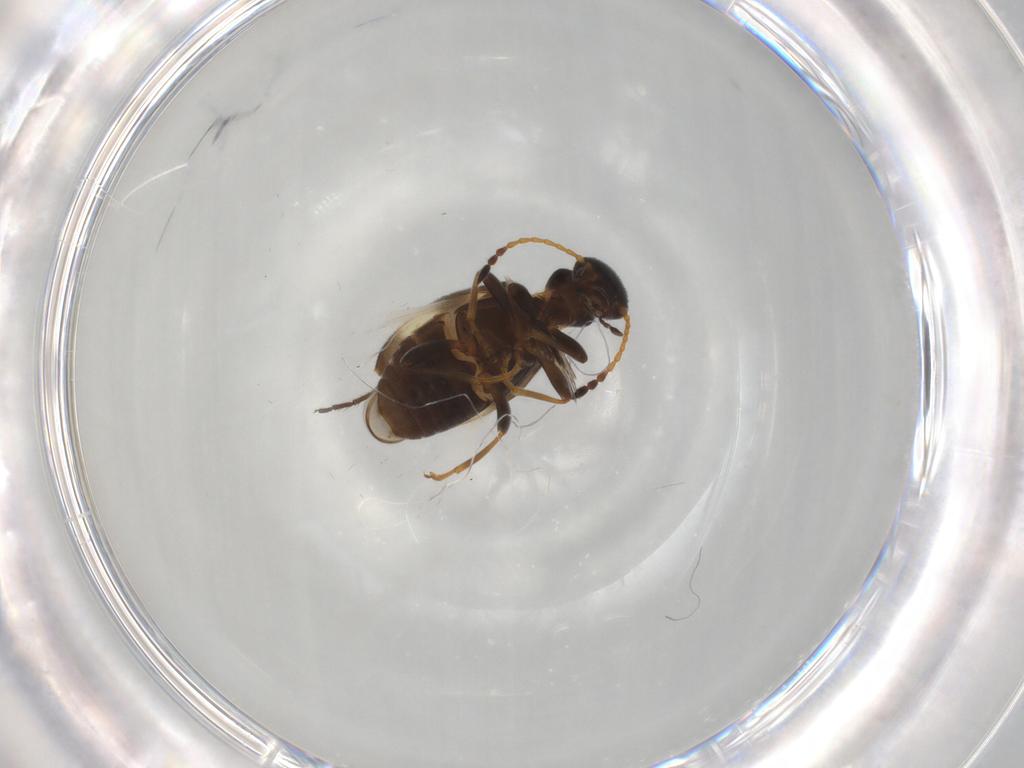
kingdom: Animalia
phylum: Arthropoda
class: Insecta
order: Coleoptera
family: Anthicidae
